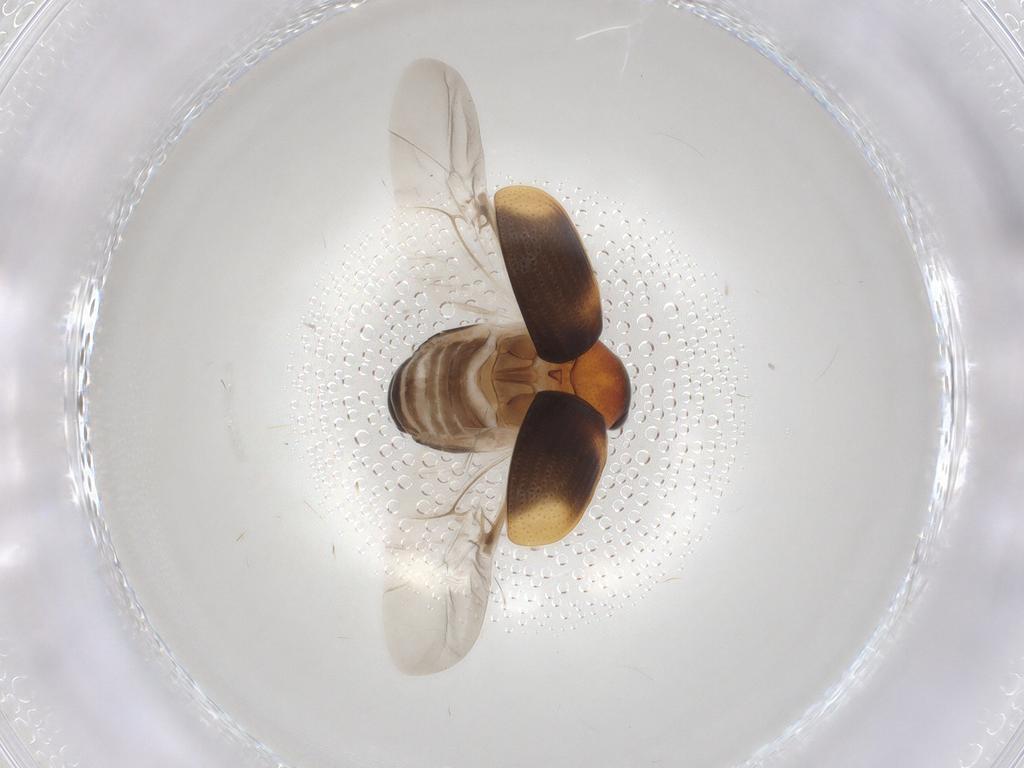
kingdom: Animalia
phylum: Arthropoda
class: Insecta
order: Coleoptera
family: Chrysomelidae
